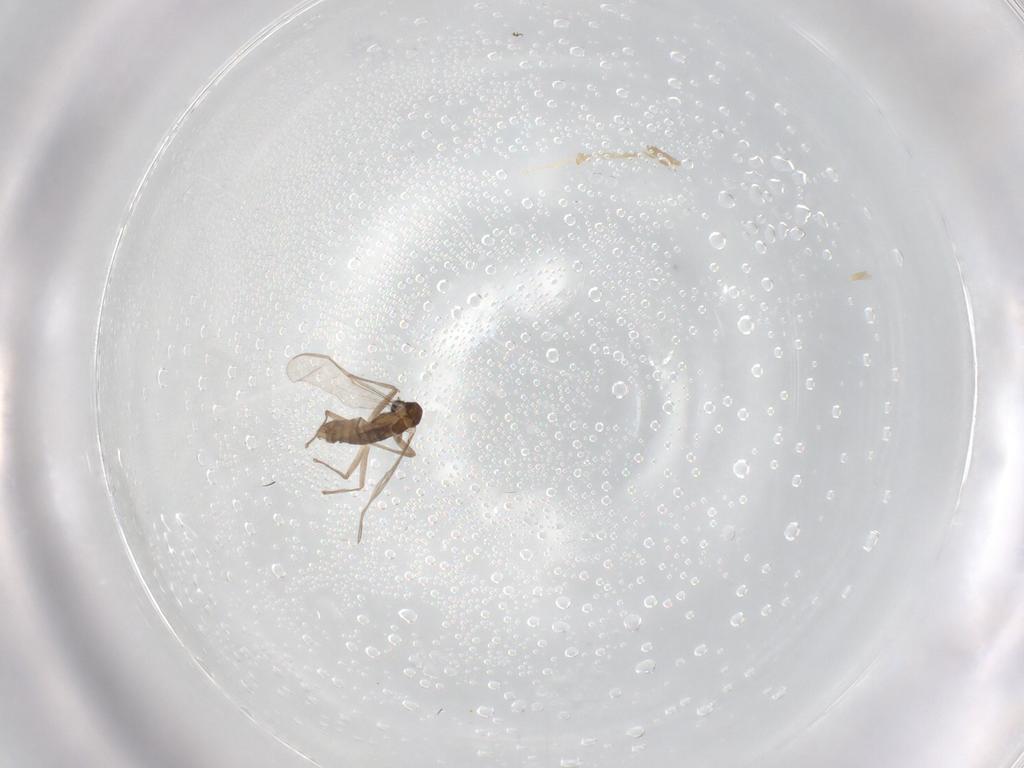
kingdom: Animalia
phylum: Arthropoda
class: Insecta
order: Diptera
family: Chironomidae
